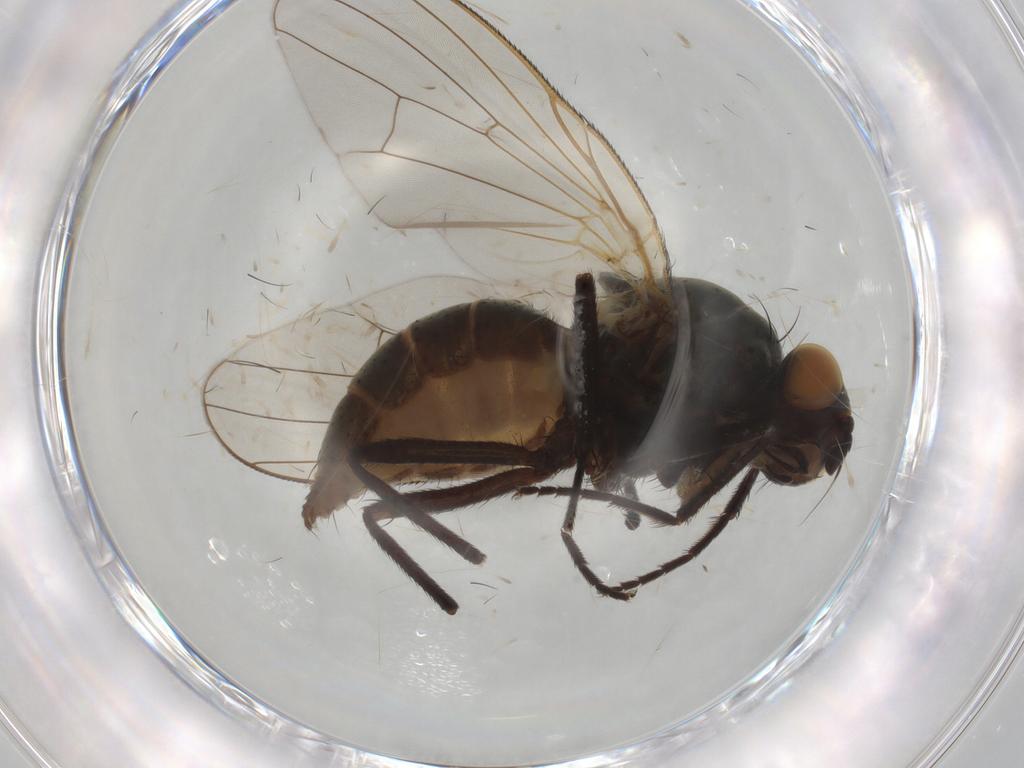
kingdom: Animalia
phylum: Arthropoda
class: Insecta
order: Diptera
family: Anthomyiidae
